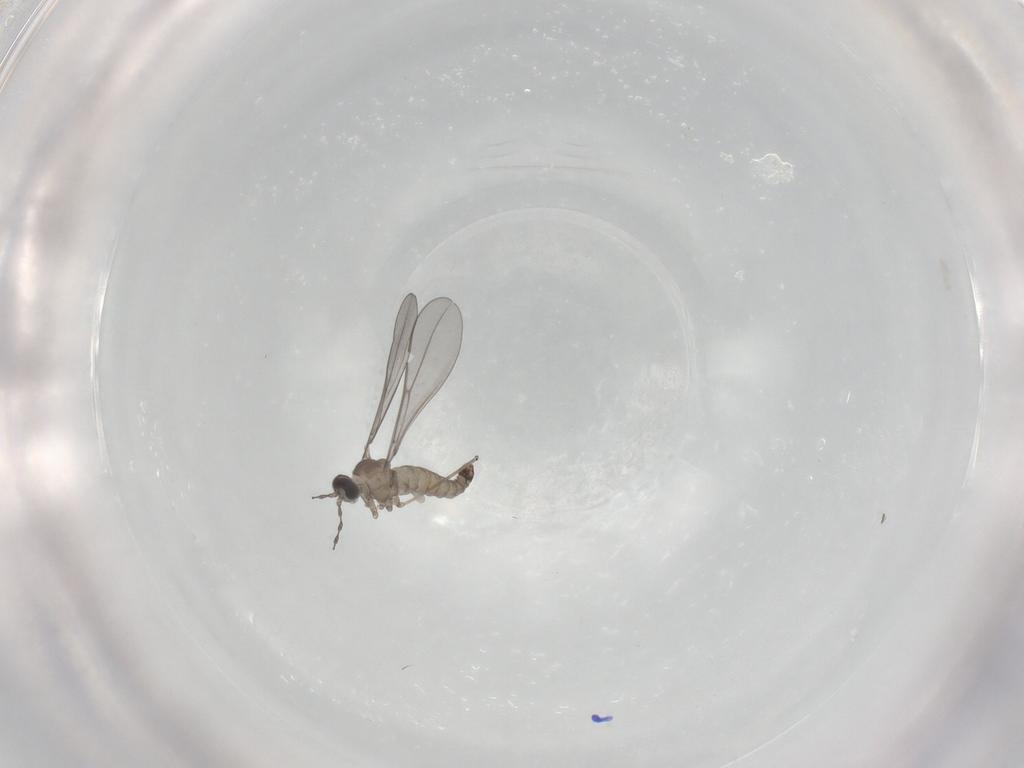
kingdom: Animalia
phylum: Arthropoda
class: Insecta
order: Diptera
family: Cecidomyiidae
